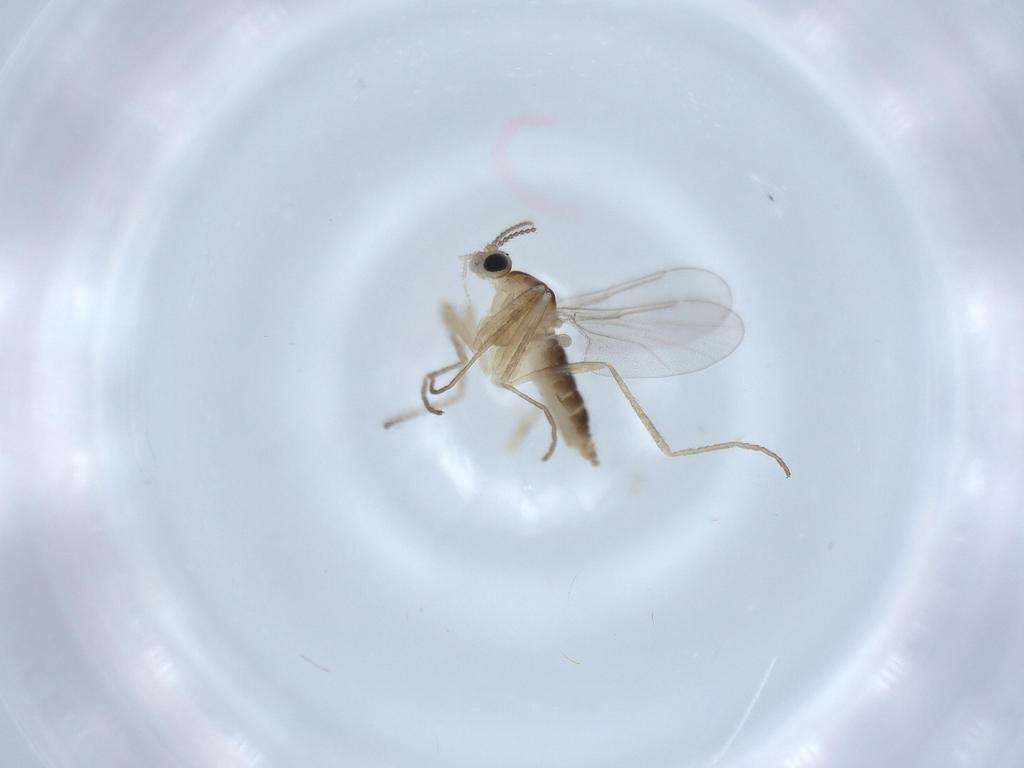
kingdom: Animalia
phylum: Arthropoda
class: Insecta
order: Diptera
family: Cecidomyiidae
